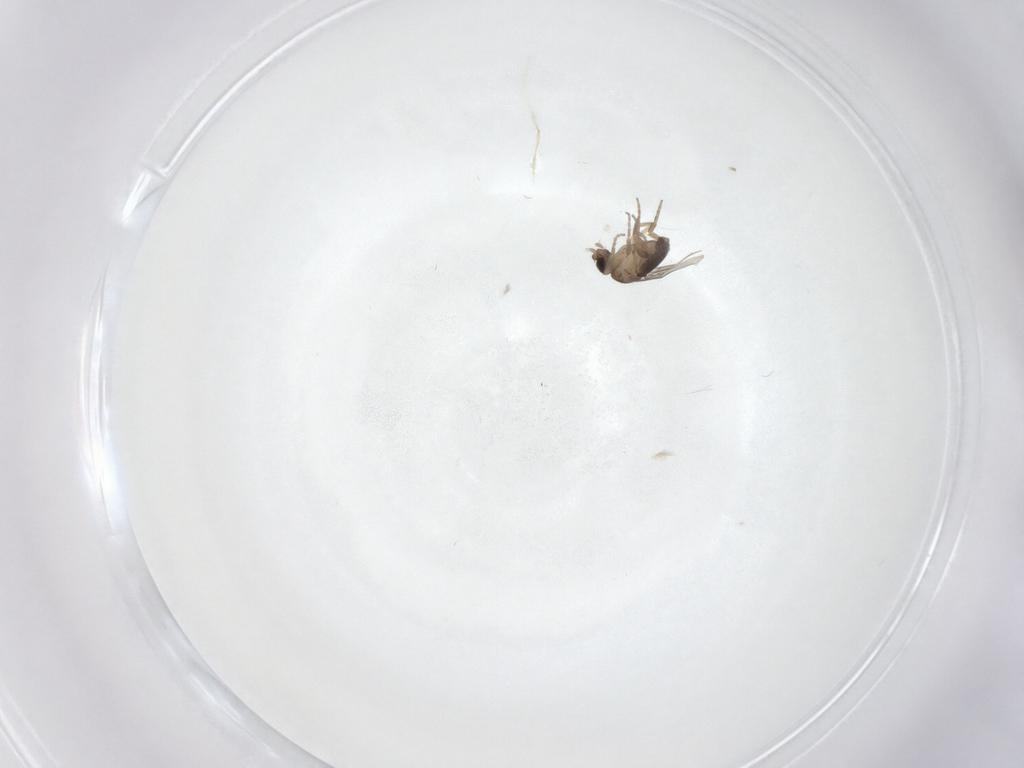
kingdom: Animalia
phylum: Arthropoda
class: Insecta
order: Diptera
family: Phoridae
